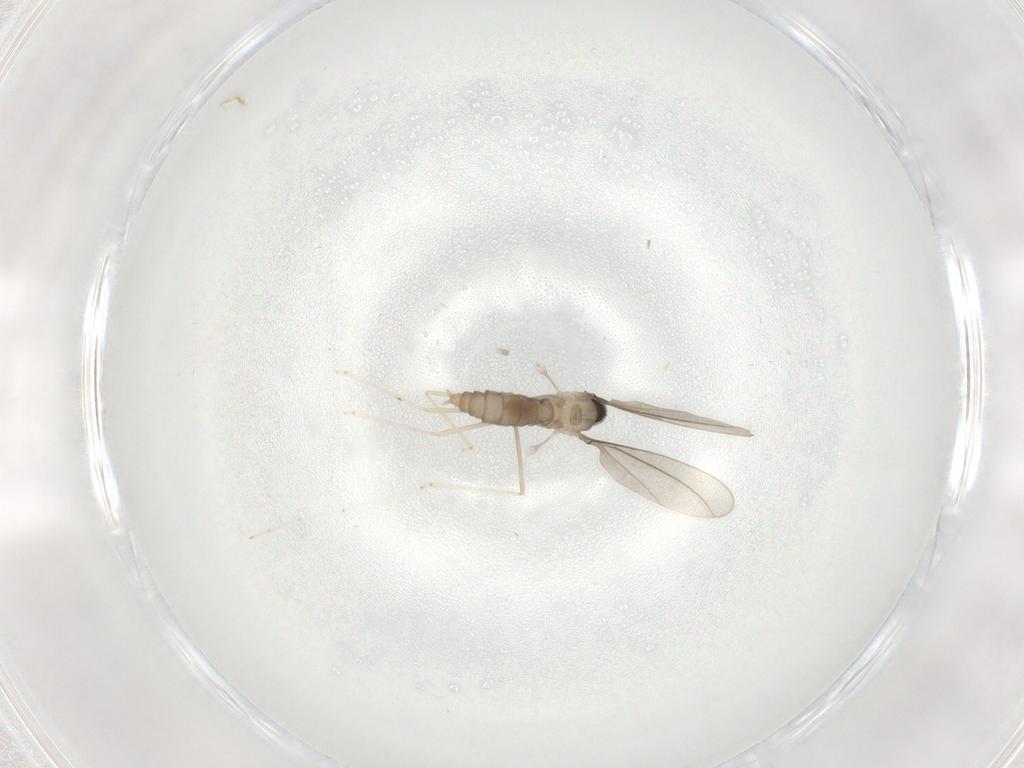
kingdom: Animalia
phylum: Arthropoda
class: Insecta
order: Diptera
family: Cecidomyiidae
